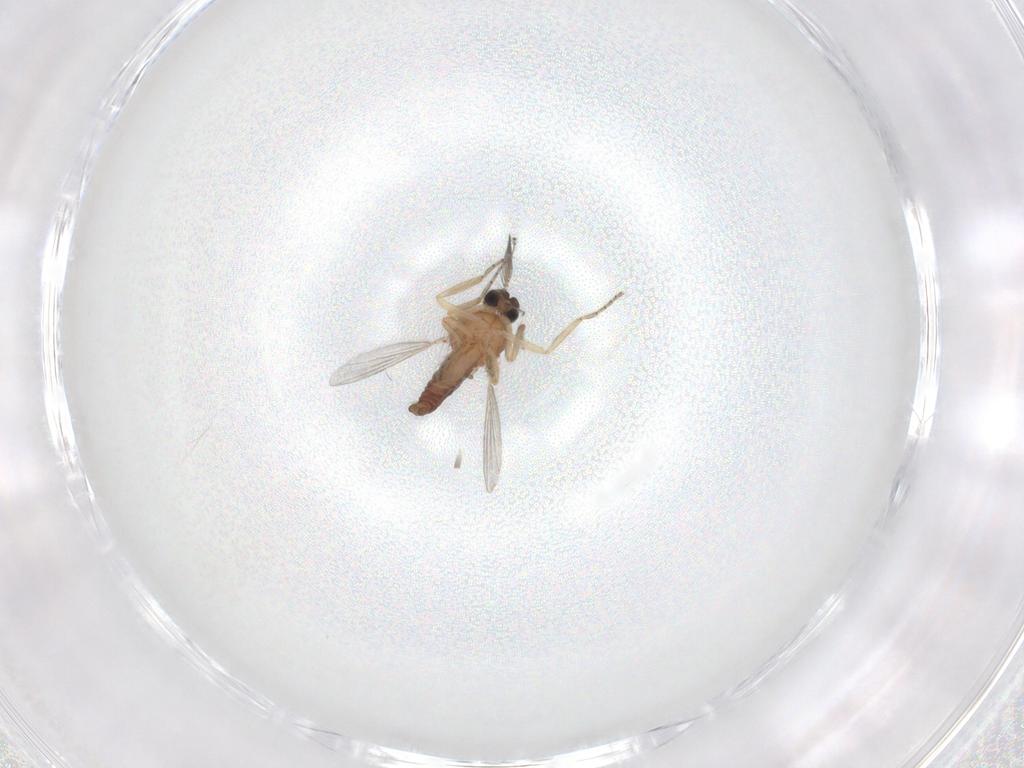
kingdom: Animalia
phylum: Arthropoda
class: Insecta
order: Diptera
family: Ceratopogonidae
